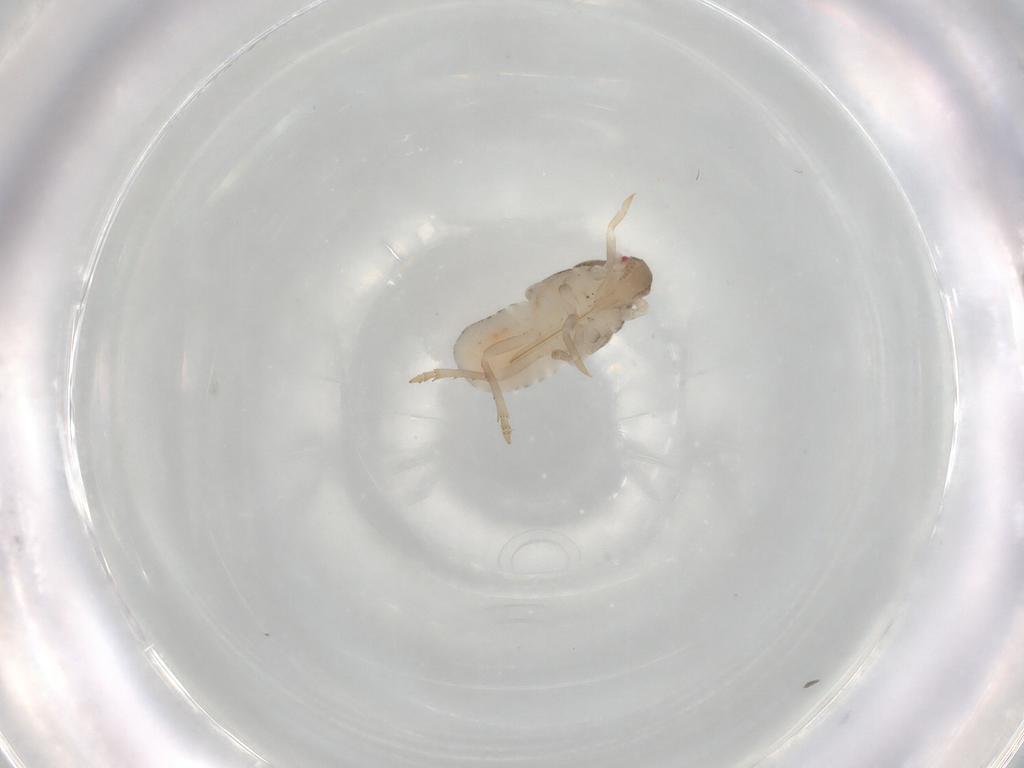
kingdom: Animalia
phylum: Arthropoda
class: Insecta
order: Hemiptera
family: Achilidae
